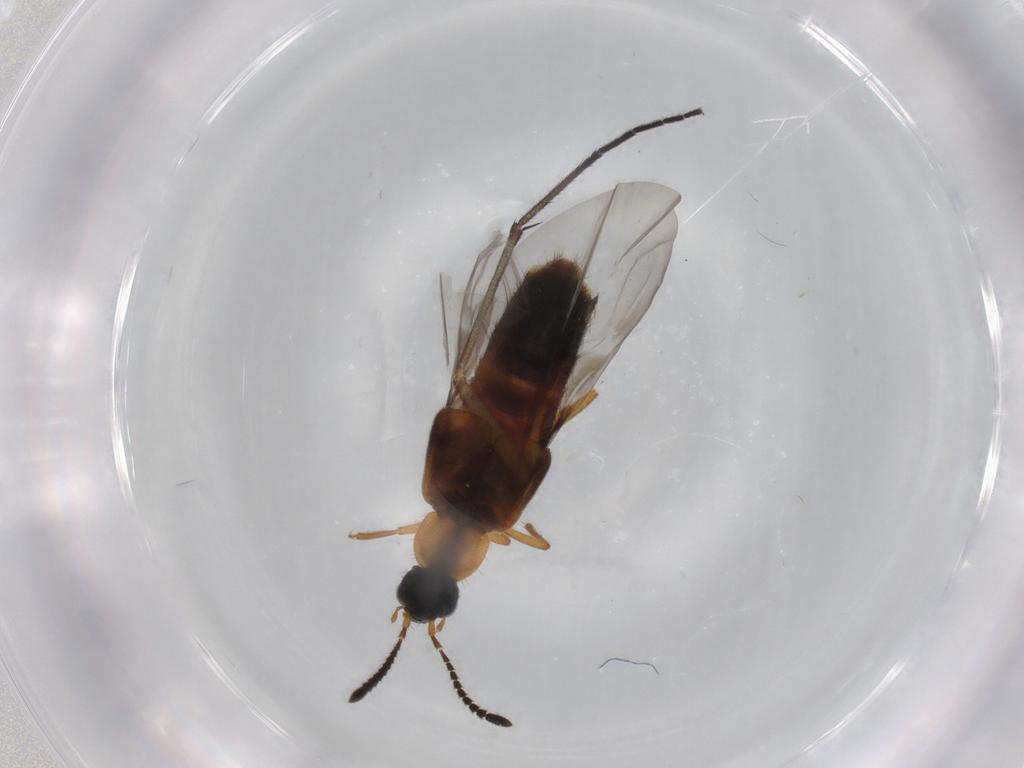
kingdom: Animalia
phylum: Arthropoda
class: Insecta
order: Coleoptera
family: Staphylinidae
